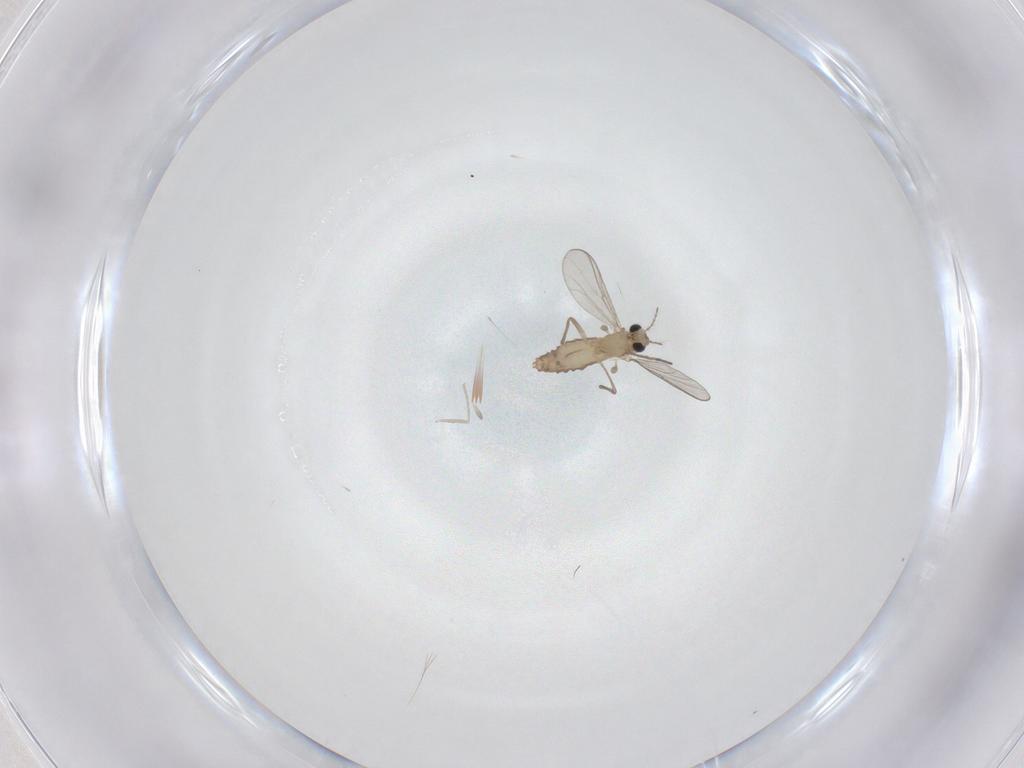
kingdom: Animalia
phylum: Arthropoda
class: Insecta
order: Diptera
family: Chironomidae
